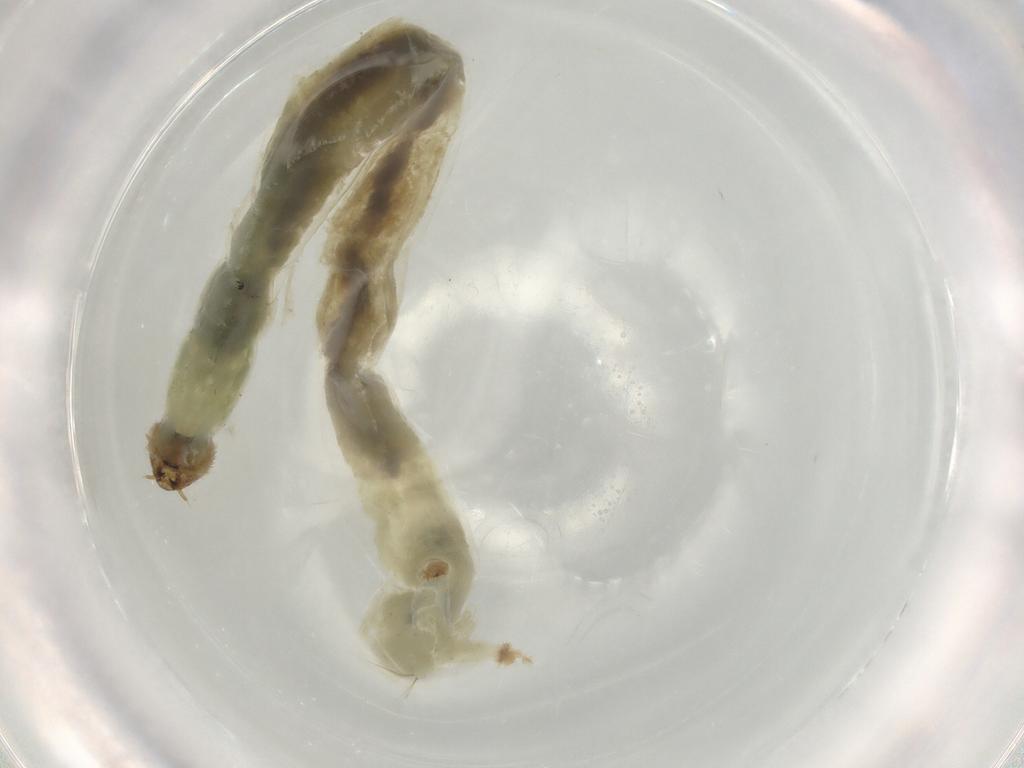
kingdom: Animalia
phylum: Arthropoda
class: Insecta
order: Diptera
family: Chironomidae
